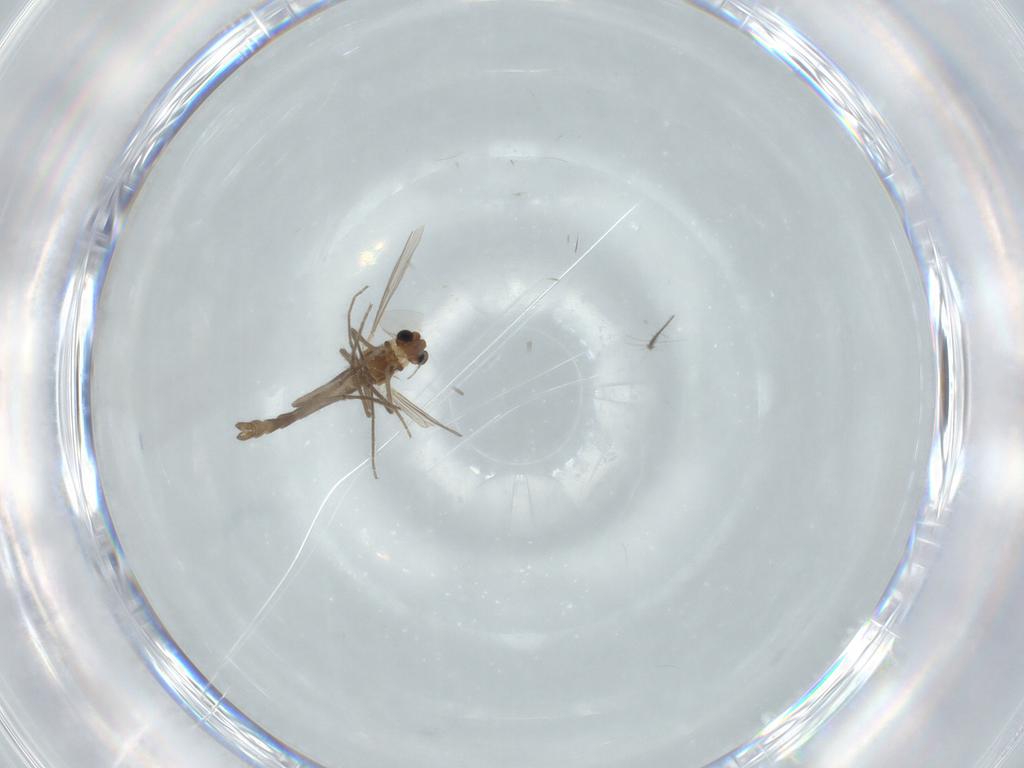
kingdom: Animalia
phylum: Arthropoda
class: Insecta
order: Diptera
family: Chironomidae
